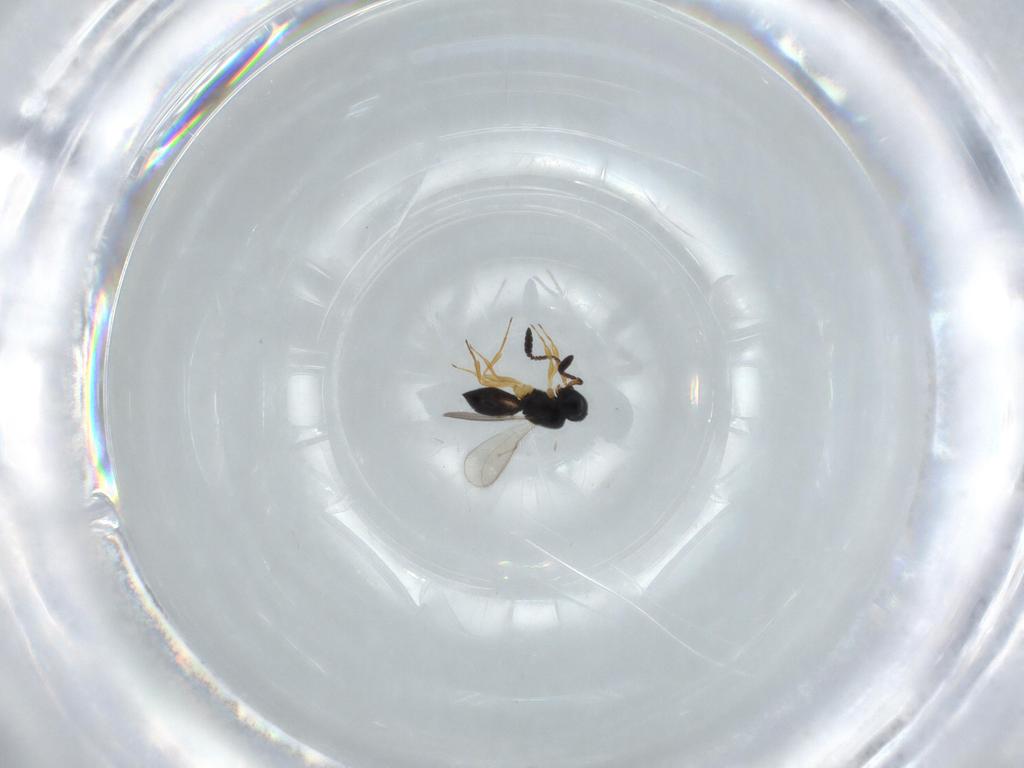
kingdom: Animalia
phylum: Arthropoda
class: Insecta
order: Hymenoptera
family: Scelionidae
